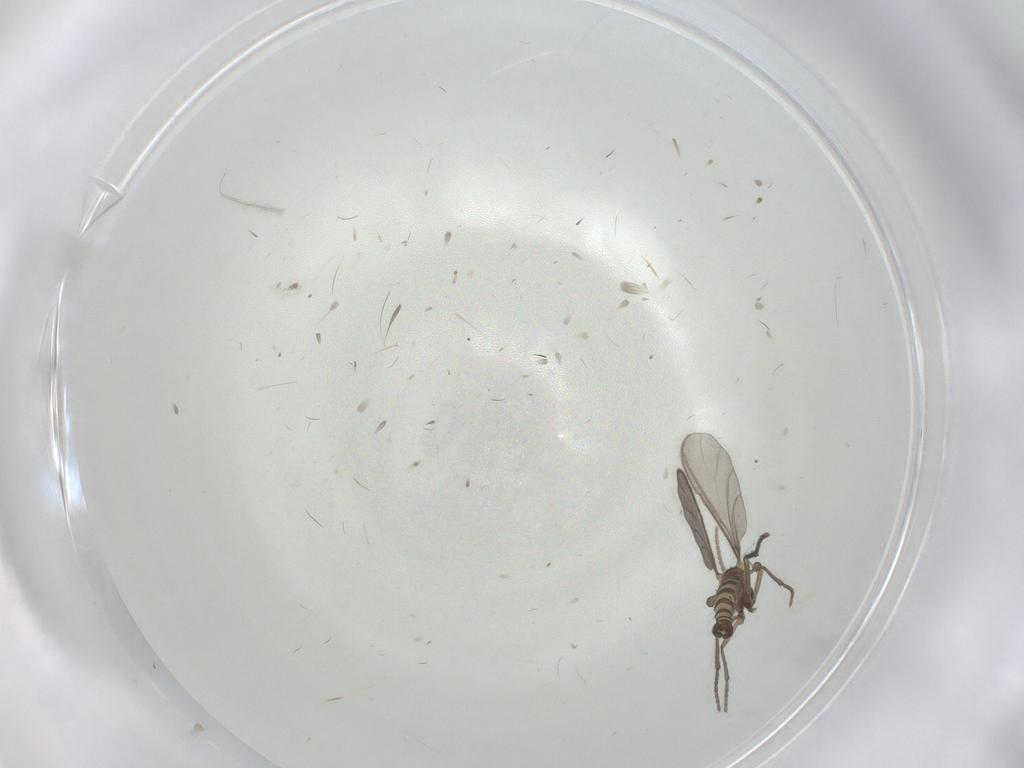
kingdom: Animalia
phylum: Arthropoda
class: Insecta
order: Diptera
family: Sciaridae
